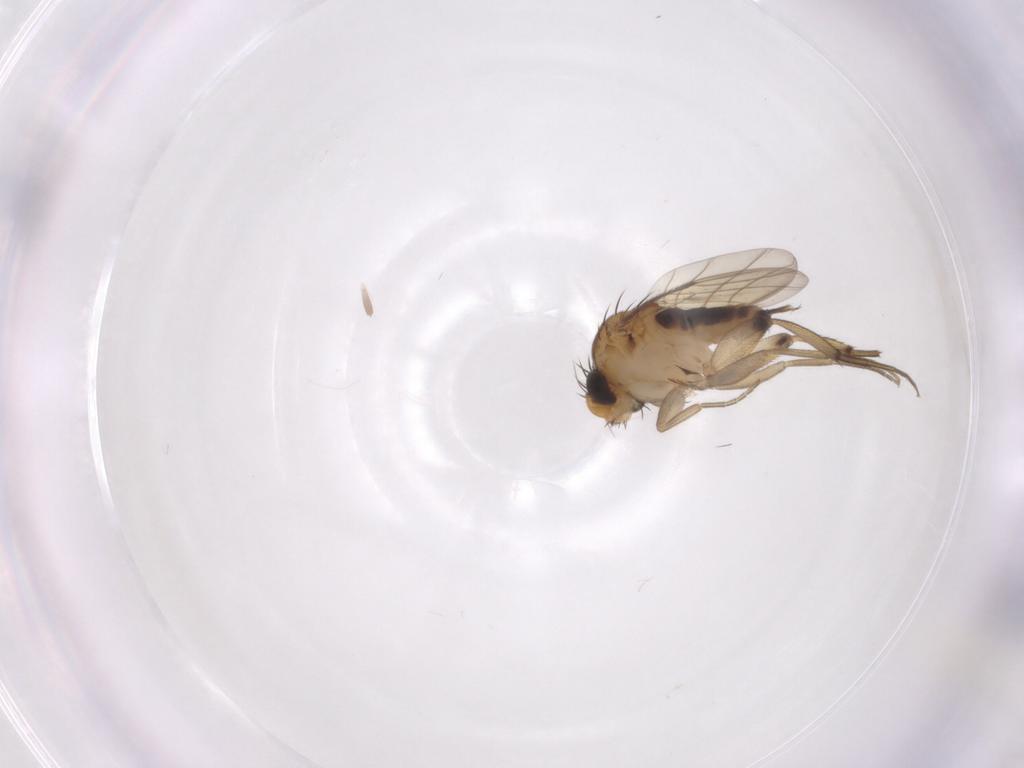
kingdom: Animalia
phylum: Arthropoda
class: Insecta
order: Diptera
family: Ceratopogonidae
